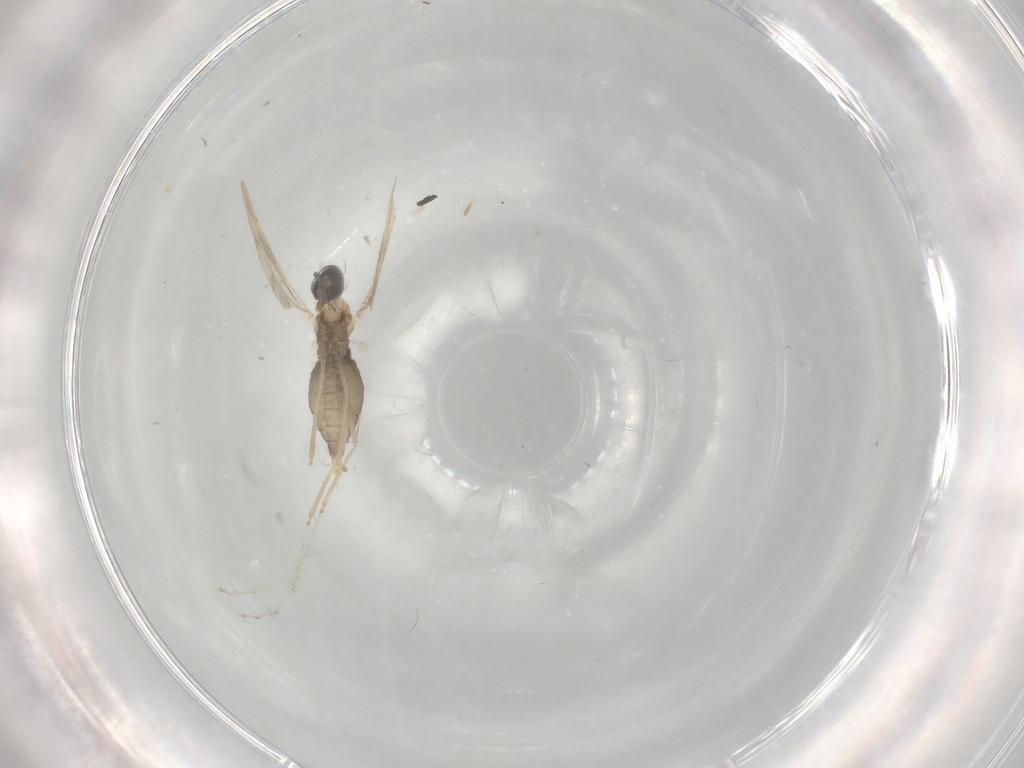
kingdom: Animalia
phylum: Arthropoda
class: Insecta
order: Diptera
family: Cecidomyiidae
